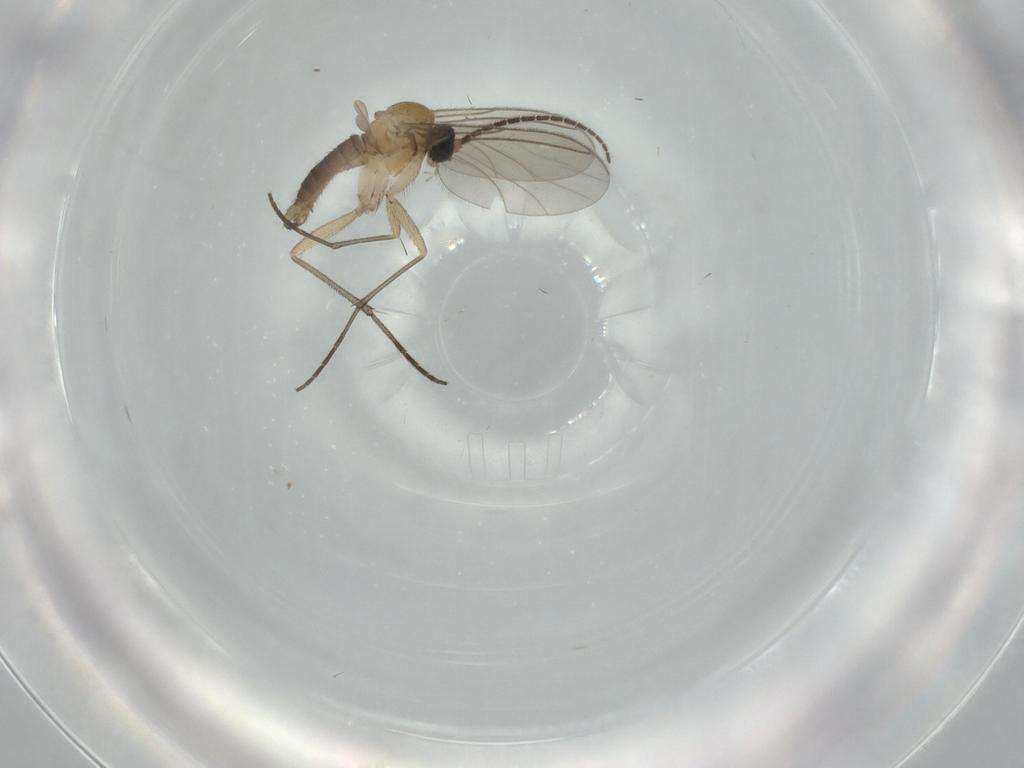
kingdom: Animalia
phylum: Arthropoda
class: Insecta
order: Diptera
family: Sciaridae
